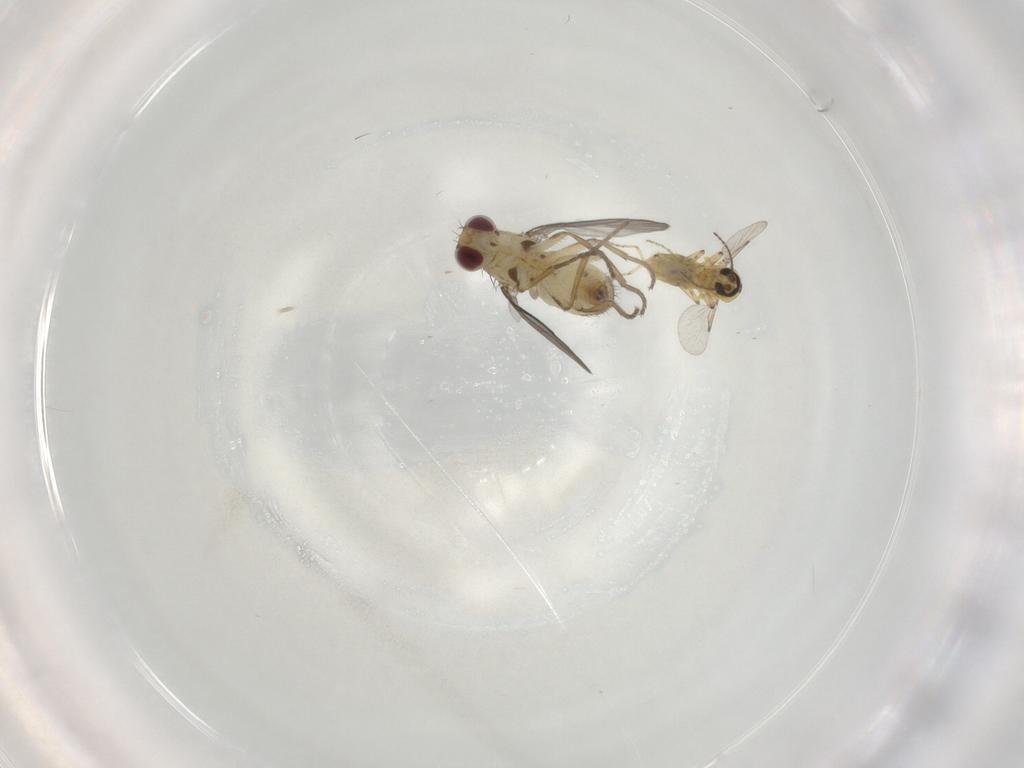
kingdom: Animalia
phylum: Arthropoda
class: Insecta
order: Diptera
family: Agromyzidae
